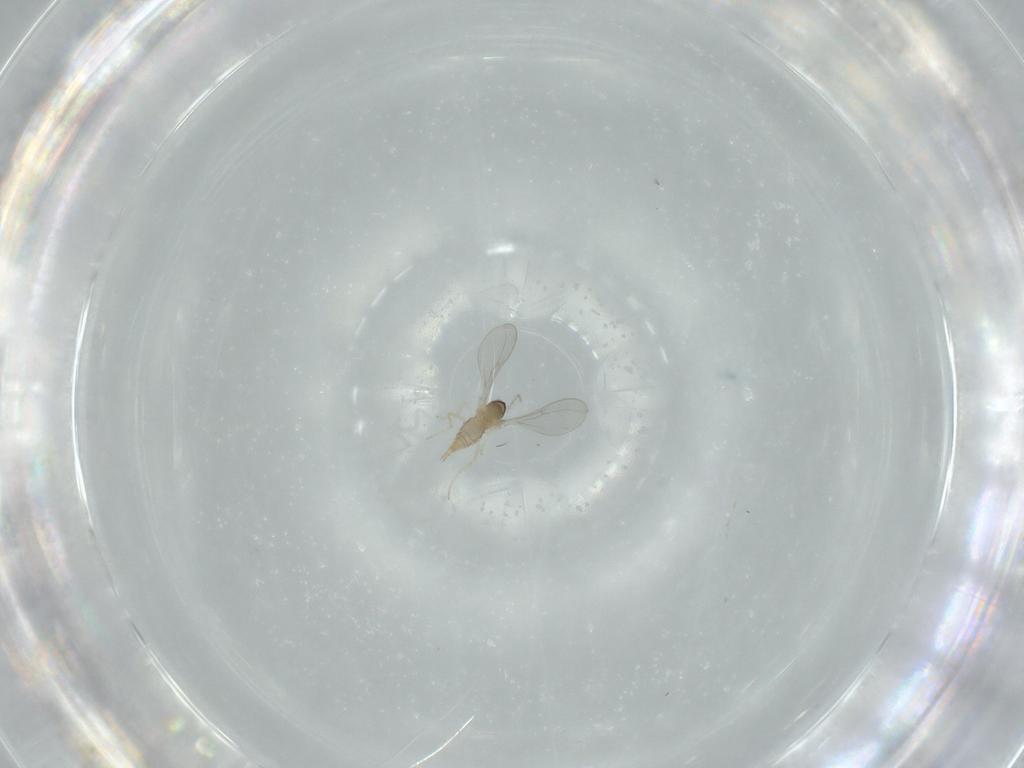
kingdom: Animalia
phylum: Arthropoda
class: Insecta
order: Diptera
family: Cecidomyiidae
